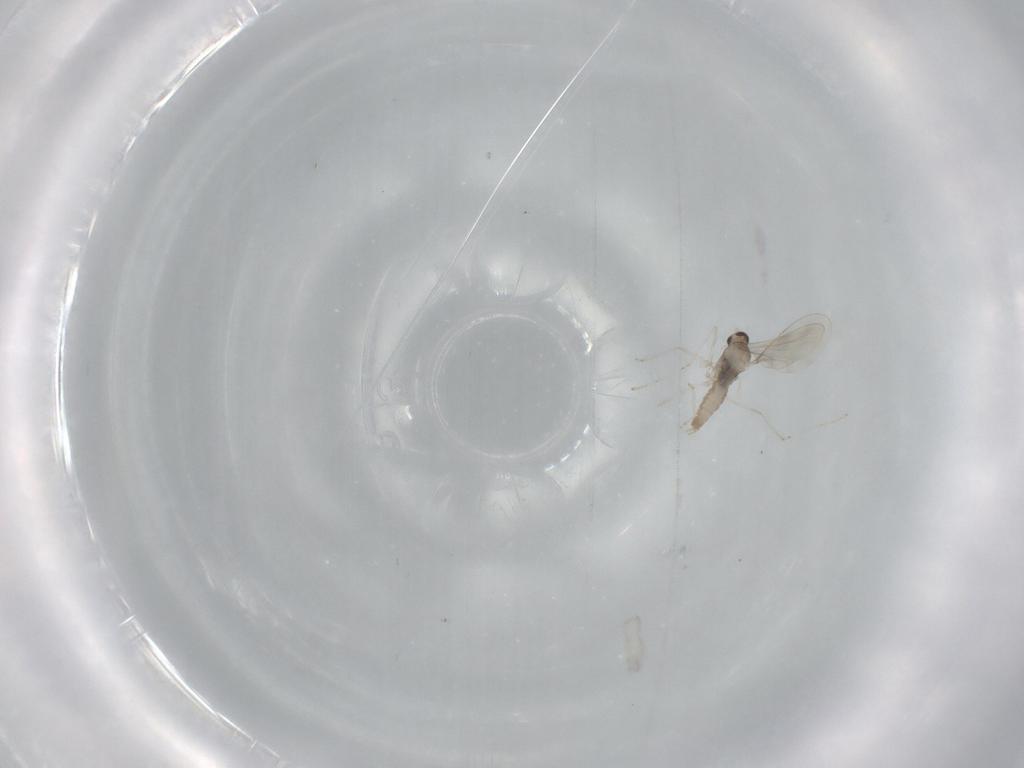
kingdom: Animalia
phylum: Arthropoda
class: Insecta
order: Diptera
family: Cecidomyiidae
